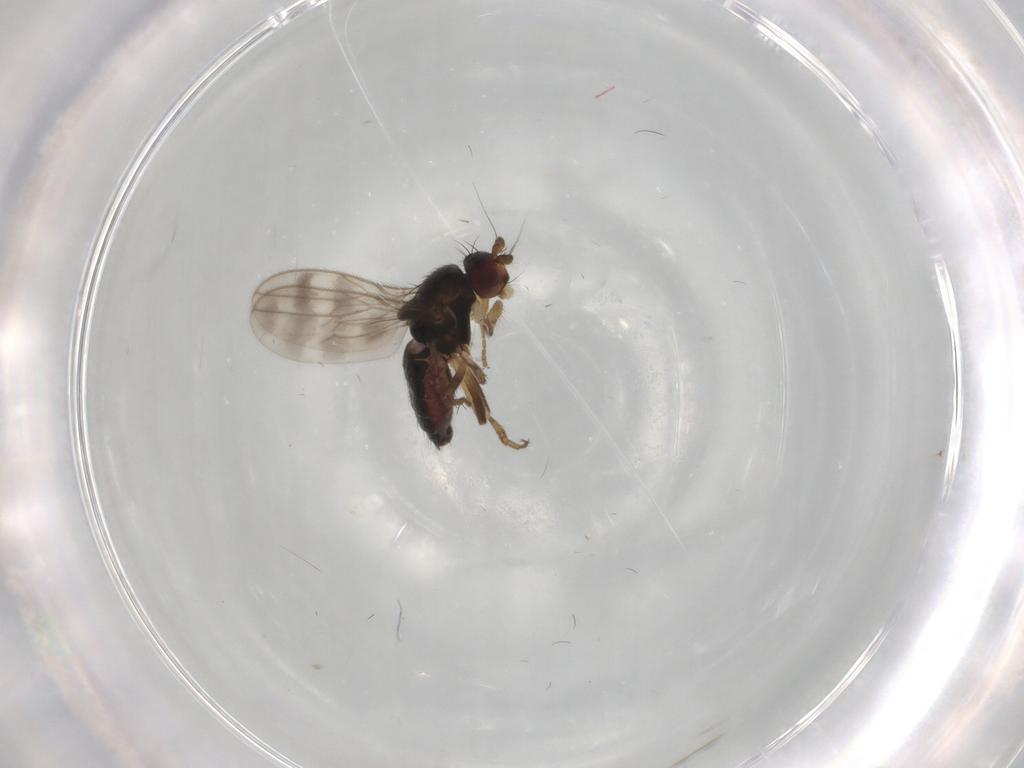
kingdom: Animalia
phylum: Arthropoda
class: Insecta
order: Diptera
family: Sphaeroceridae
